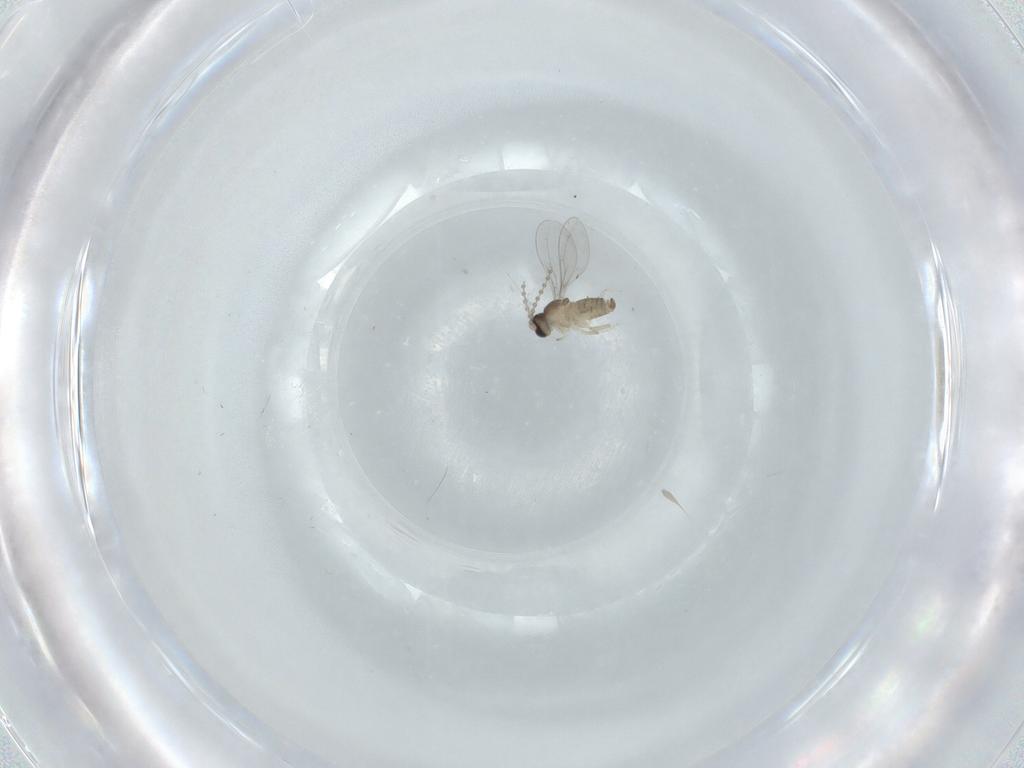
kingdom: Animalia
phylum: Arthropoda
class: Insecta
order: Diptera
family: Cecidomyiidae
